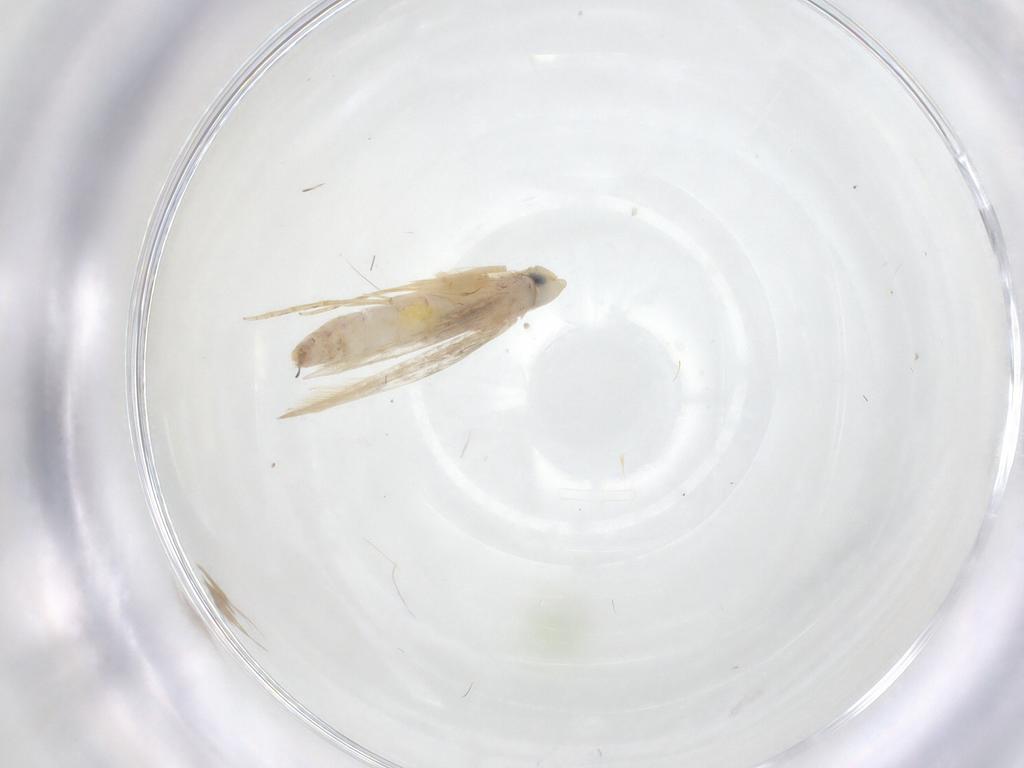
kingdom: Animalia
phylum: Arthropoda
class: Insecta
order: Lepidoptera
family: Tineidae
